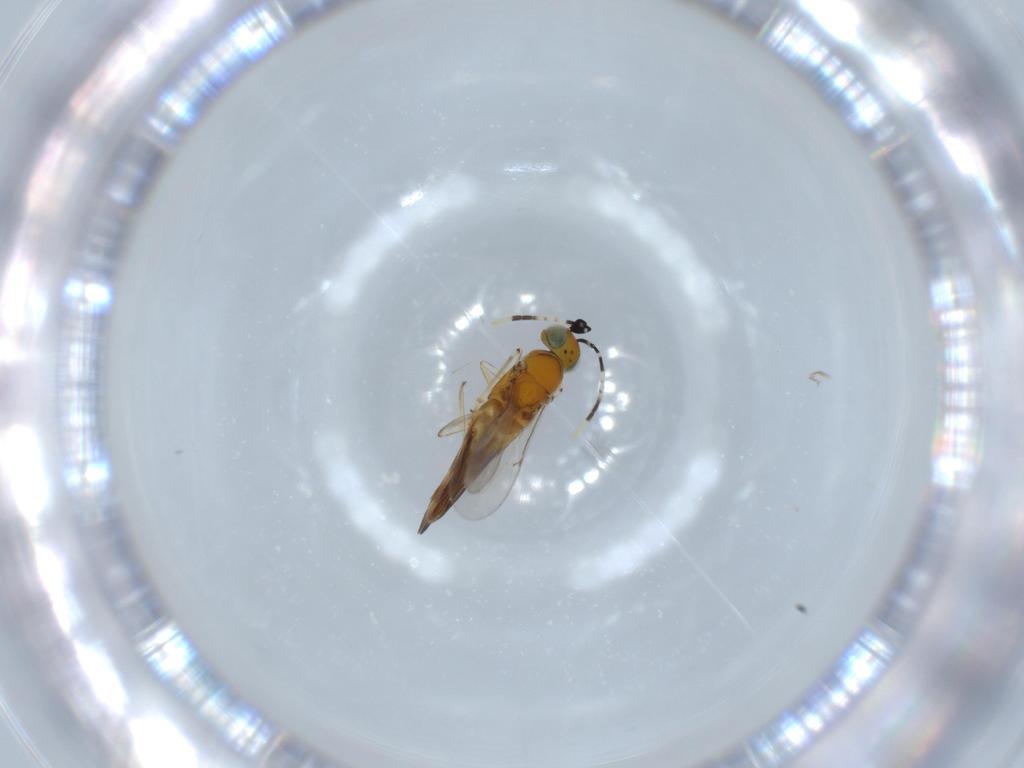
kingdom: Animalia
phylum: Arthropoda
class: Insecta
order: Hymenoptera
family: Encyrtidae
